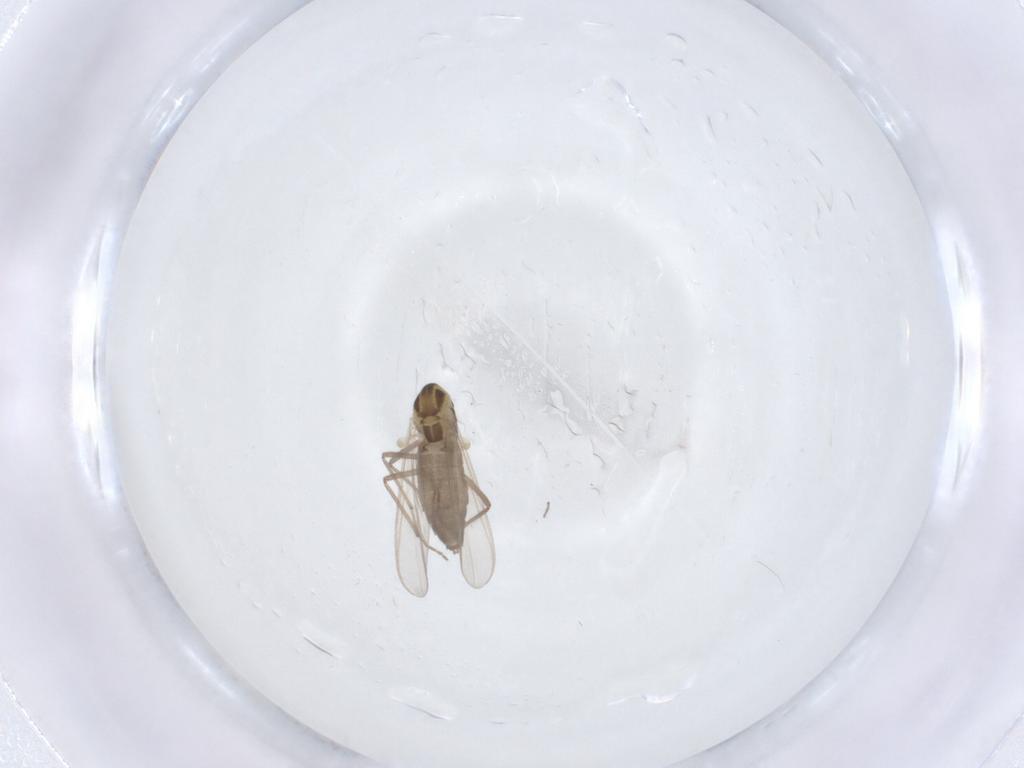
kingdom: Animalia
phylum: Arthropoda
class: Insecta
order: Diptera
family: Chironomidae
